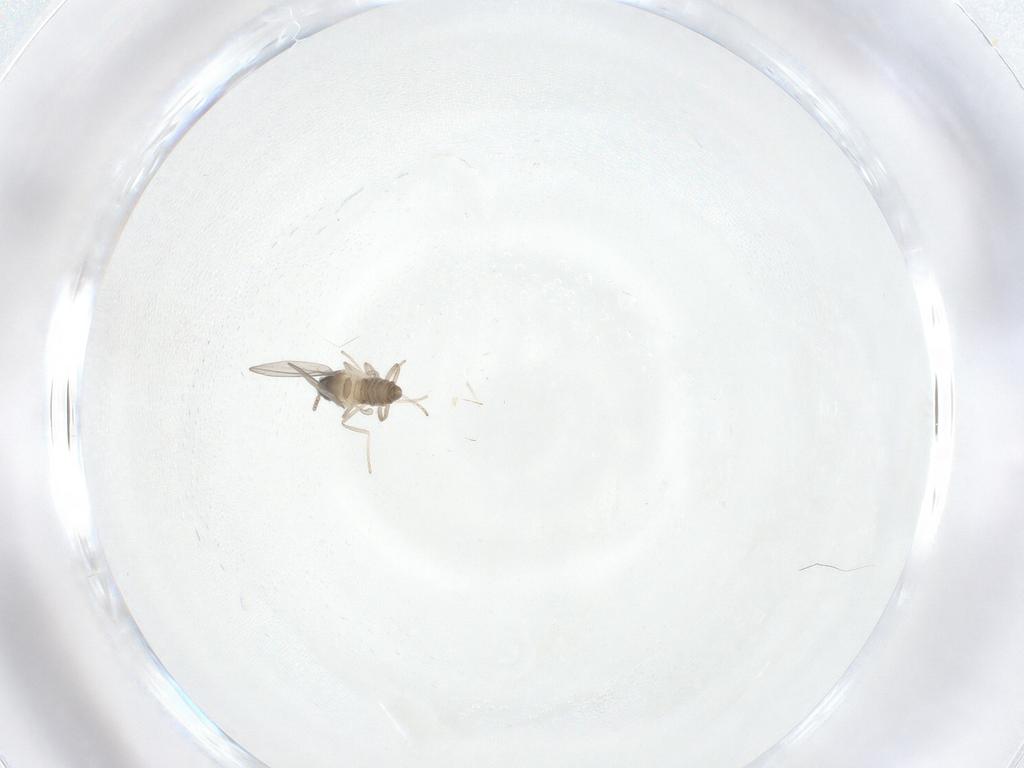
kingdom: Animalia
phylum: Arthropoda
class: Insecta
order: Diptera
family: Cecidomyiidae
